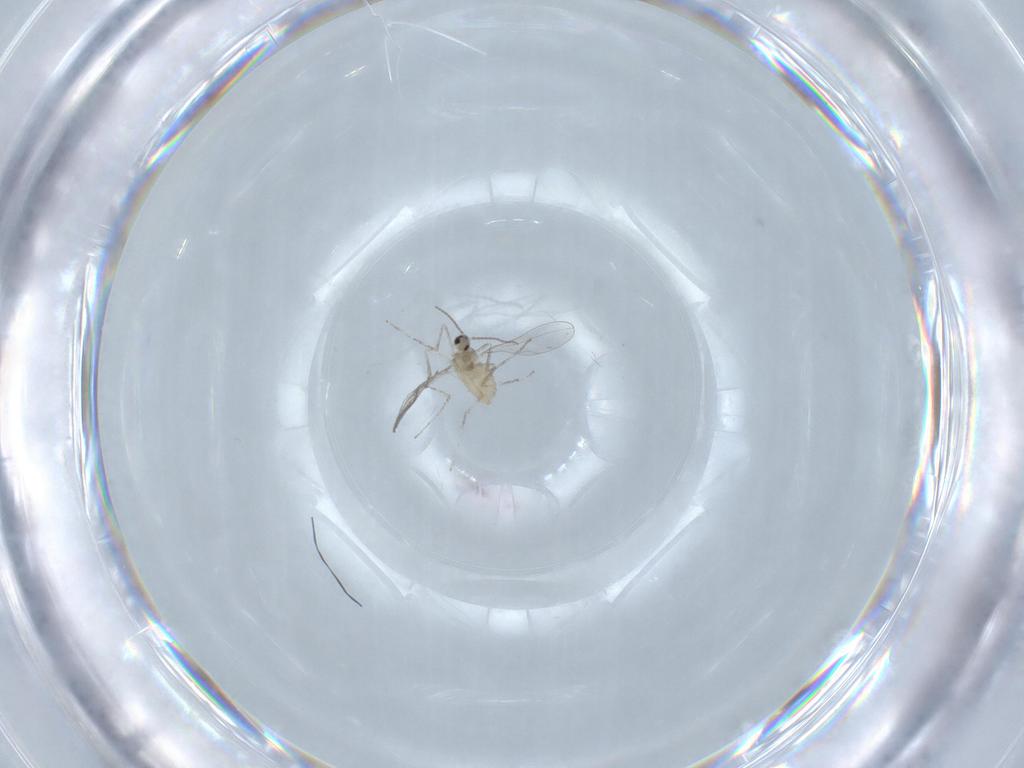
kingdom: Animalia
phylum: Arthropoda
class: Insecta
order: Diptera
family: Cecidomyiidae
